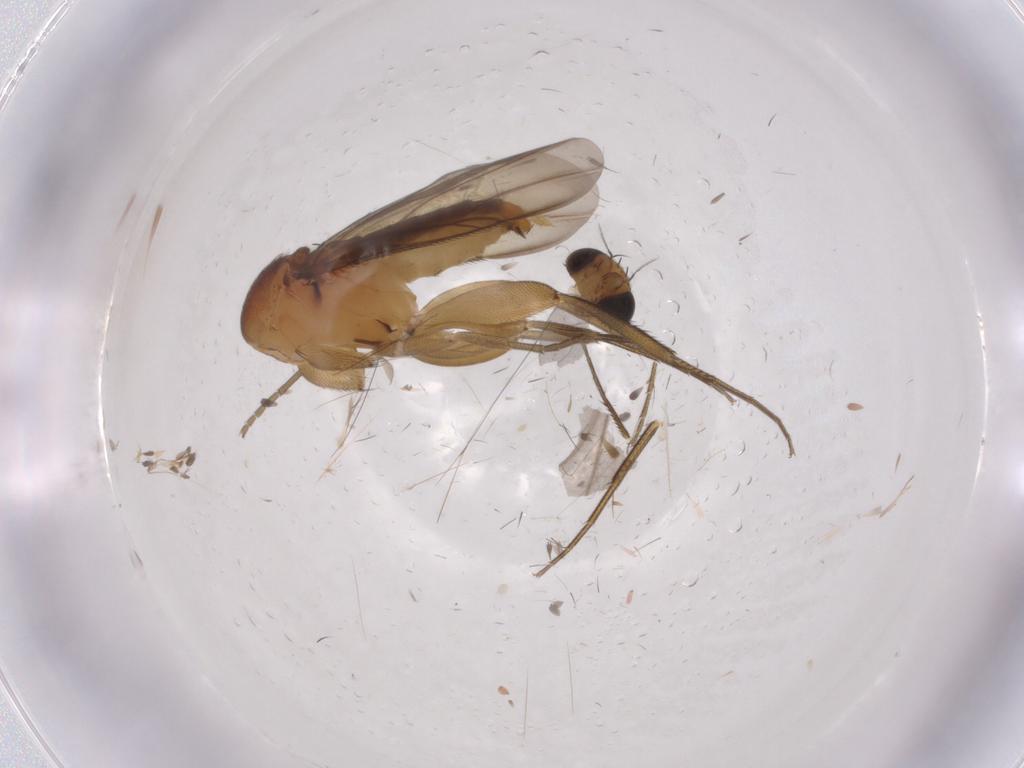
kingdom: Animalia
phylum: Arthropoda
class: Insecta
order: Diptera
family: Phoridae
